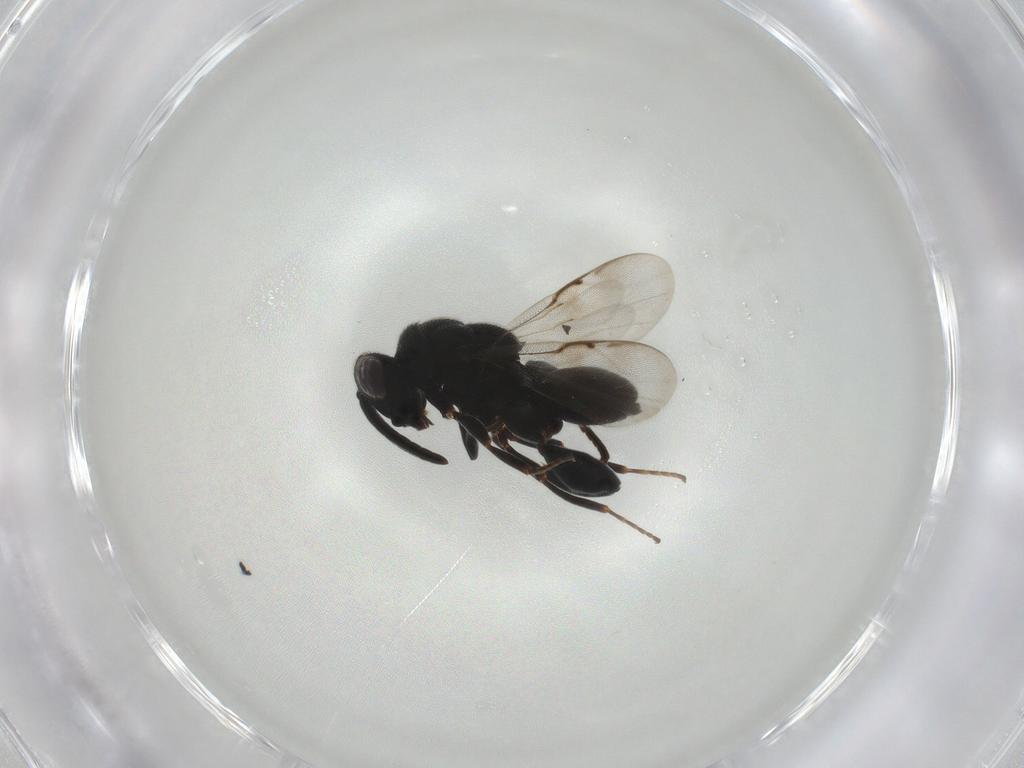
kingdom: Animalia
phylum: Arthropoda
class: Insecta
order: Hymenoptera
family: Chalcididae
